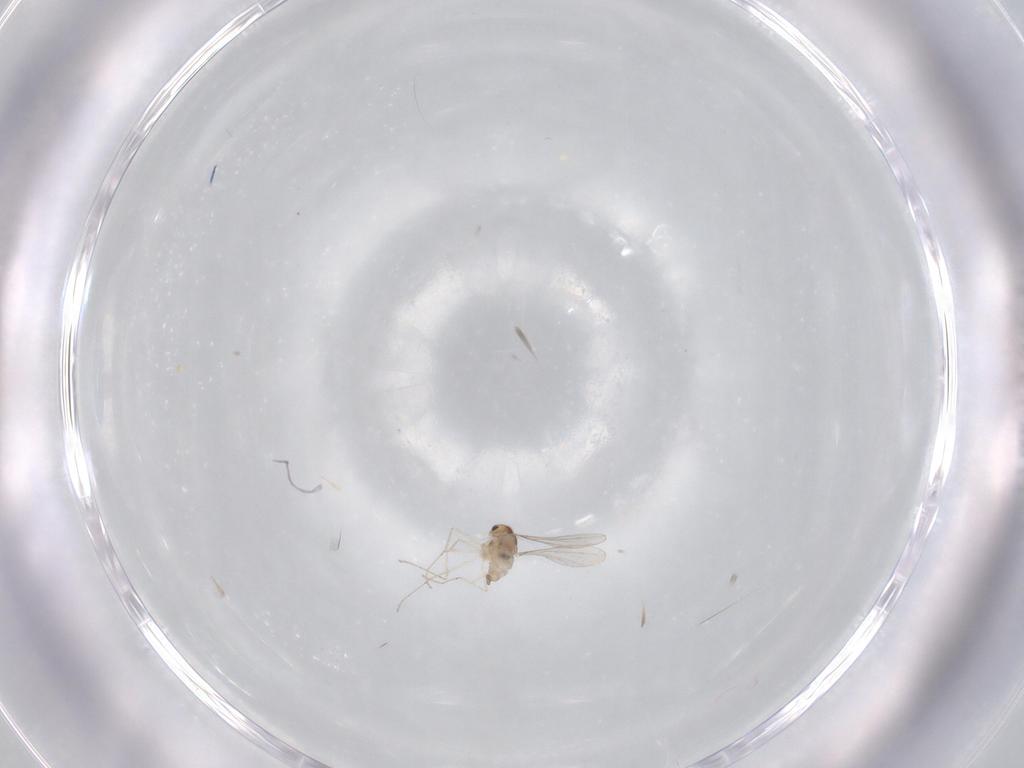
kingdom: Animalia
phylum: Arthropoda
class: Insecta
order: Diptera
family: Cecidomyiidae
